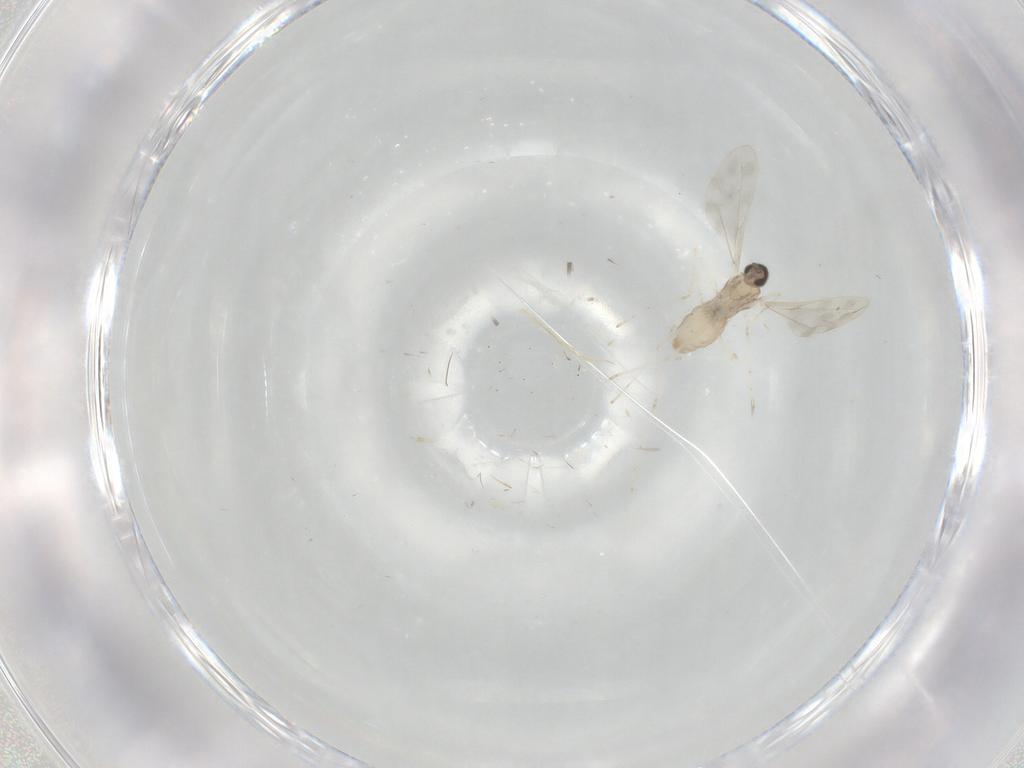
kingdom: Animalia
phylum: Arthropoda
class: Insecta
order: Diptera
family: Cecidomyiidae
